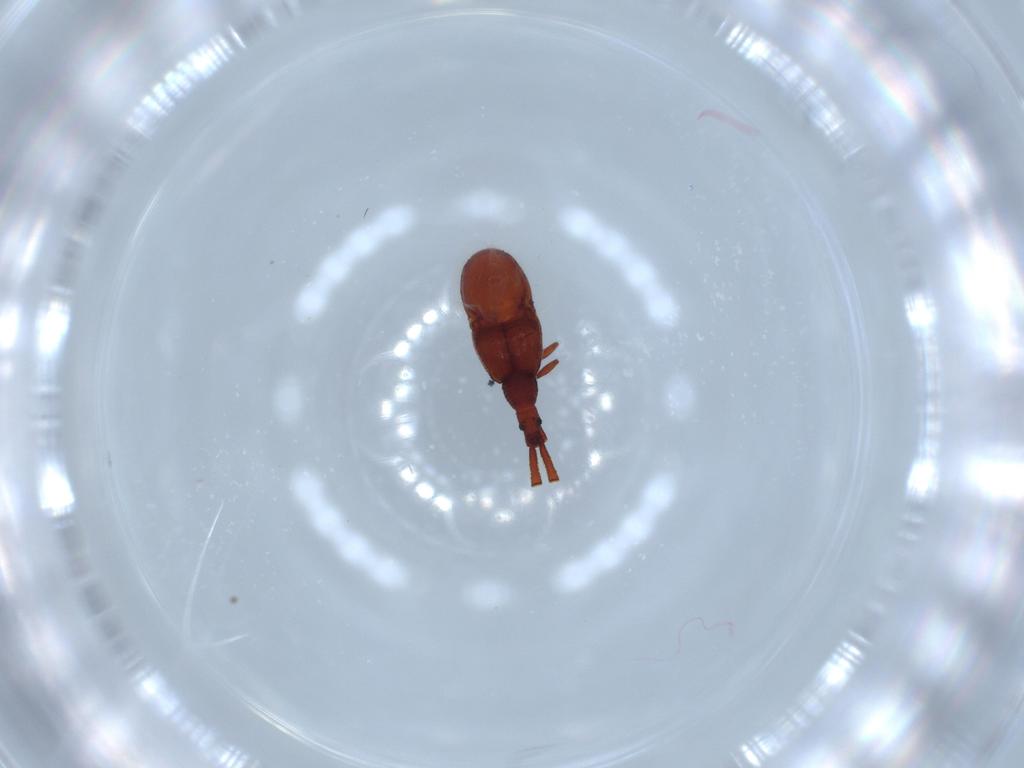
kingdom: Animalia
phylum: Arthropoda
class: Insecta
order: Coleoptera
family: Staphylinidae
